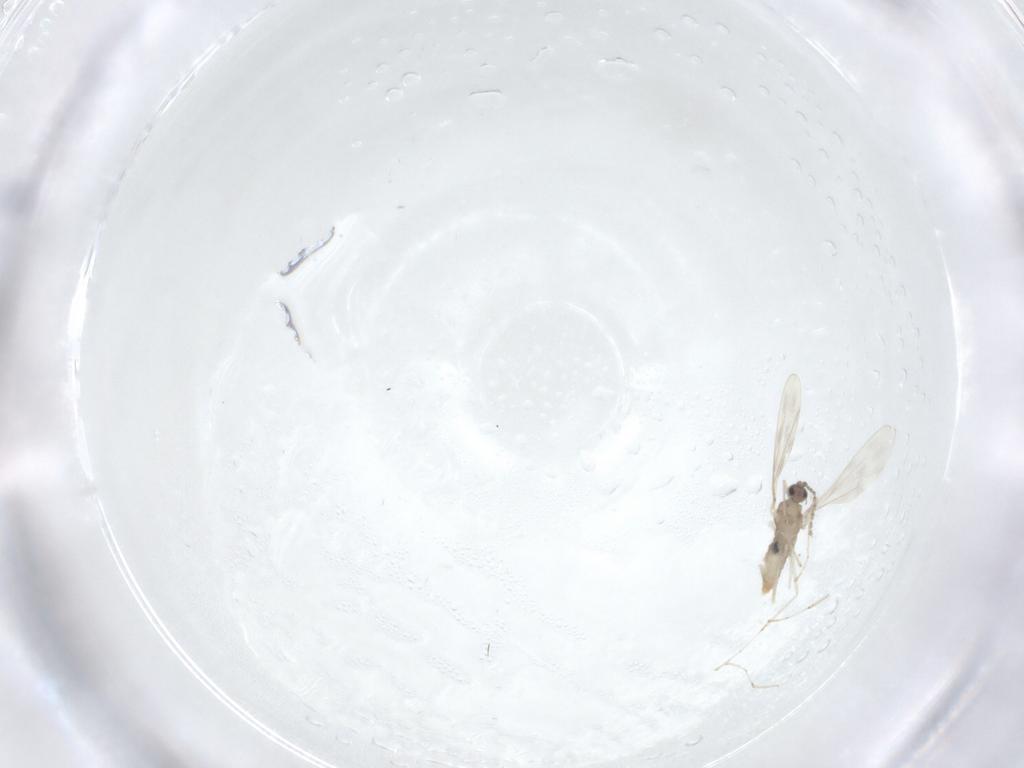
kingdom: Animalia
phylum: Arthropoda
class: Insecta
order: Diptera
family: Cecidomyiidae
